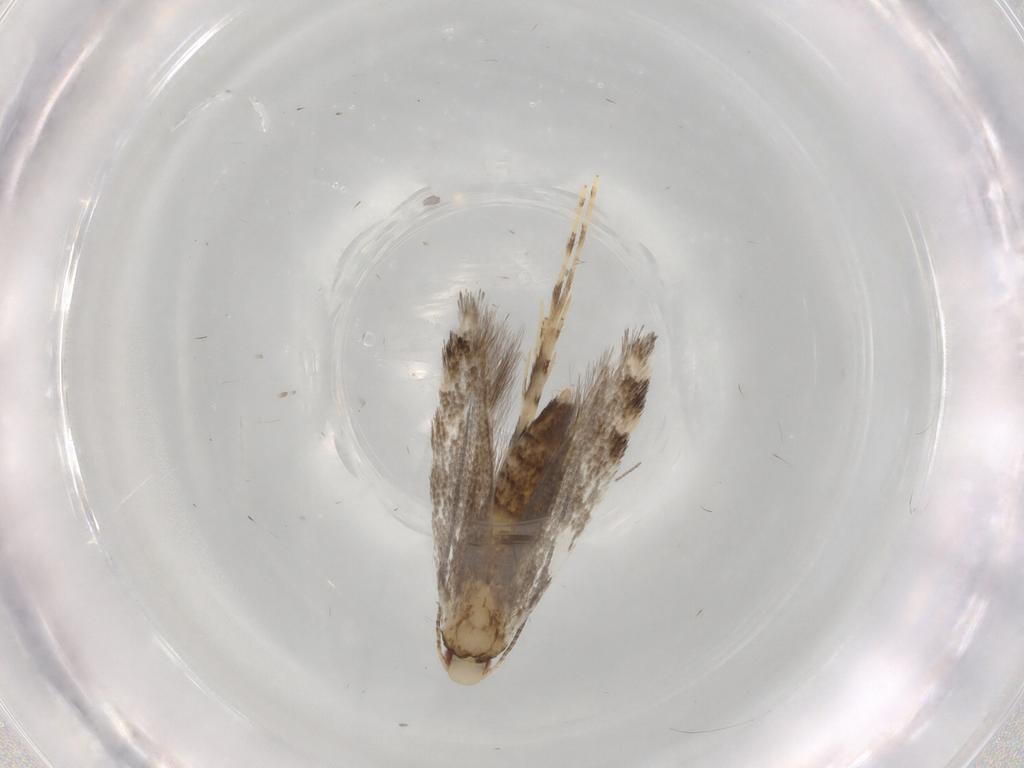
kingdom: Animalia
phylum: Arthropoda
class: Insecta
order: Lepidoptera
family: Gracillariidae
